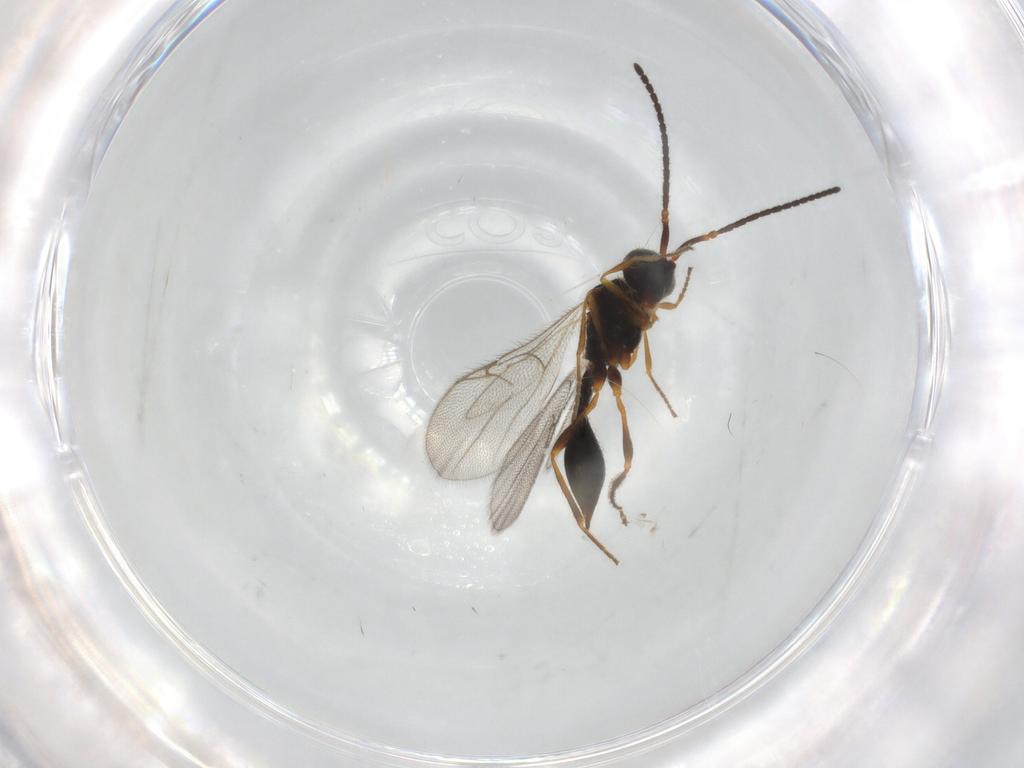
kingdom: Animalia
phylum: Arthropoda
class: Insecta
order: Hymenoptera
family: Diapriidae
